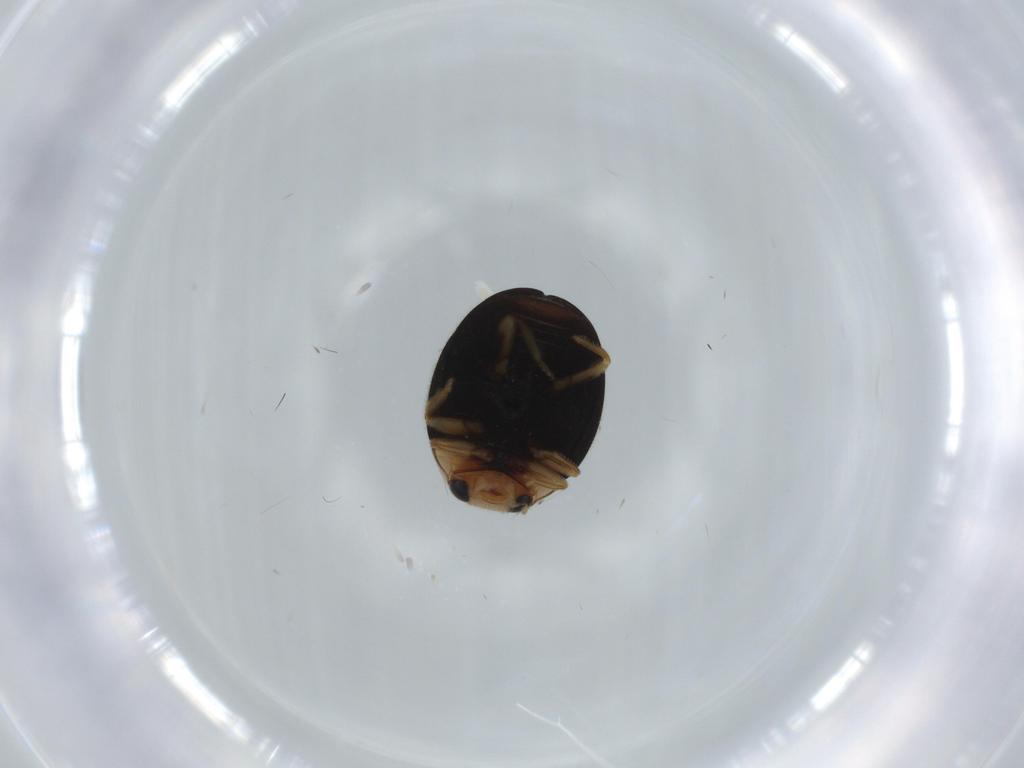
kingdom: Animalia
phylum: Arthropoda
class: Insecta
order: Coleoptera
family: Coccinellidae
